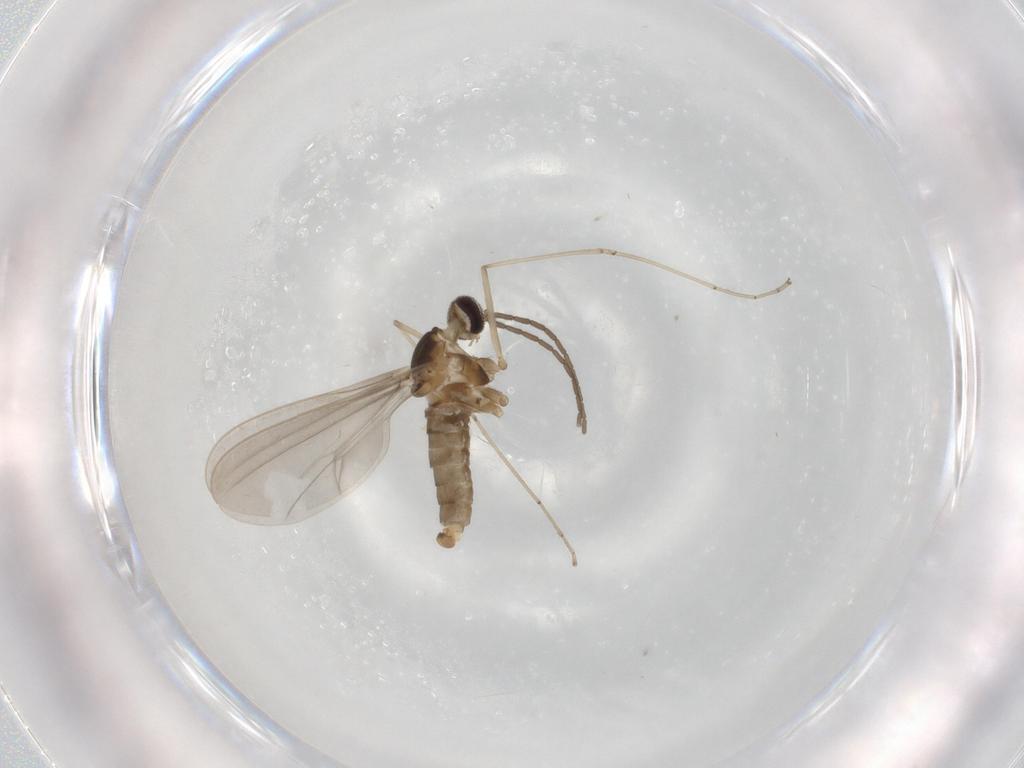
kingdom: Animalia
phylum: Arthropoda
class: Insecta
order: Diptera
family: Cecidomyiidae
